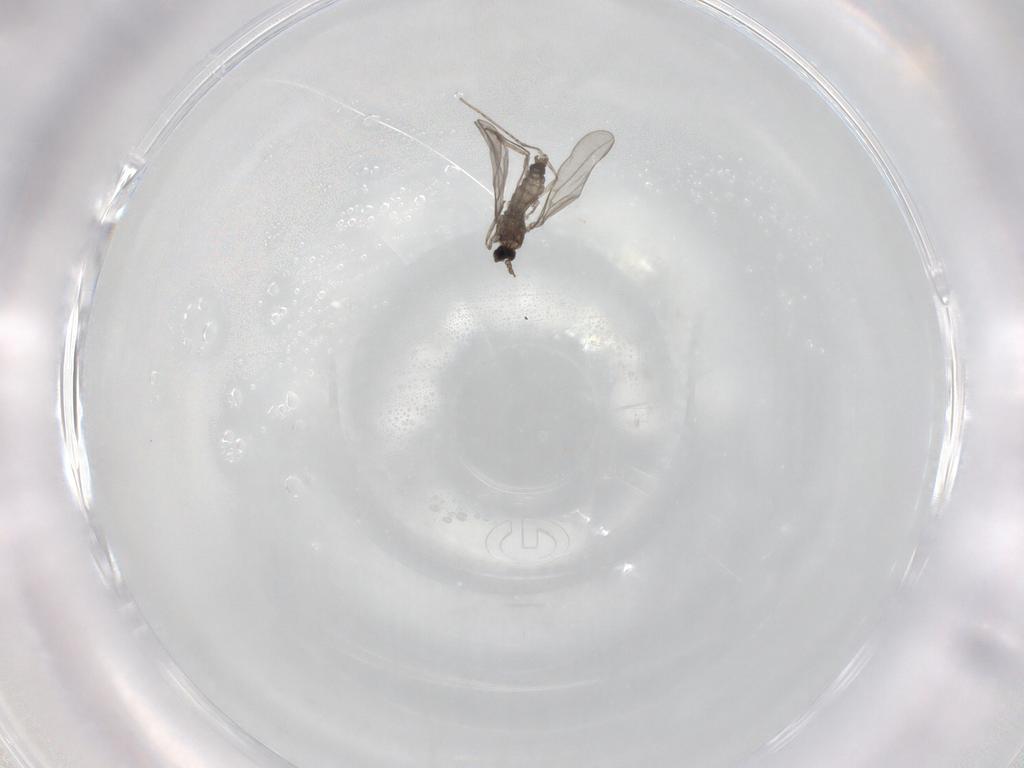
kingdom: Animalia
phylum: Arthropoda
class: Insecta
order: Diptera
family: Chironomidae
